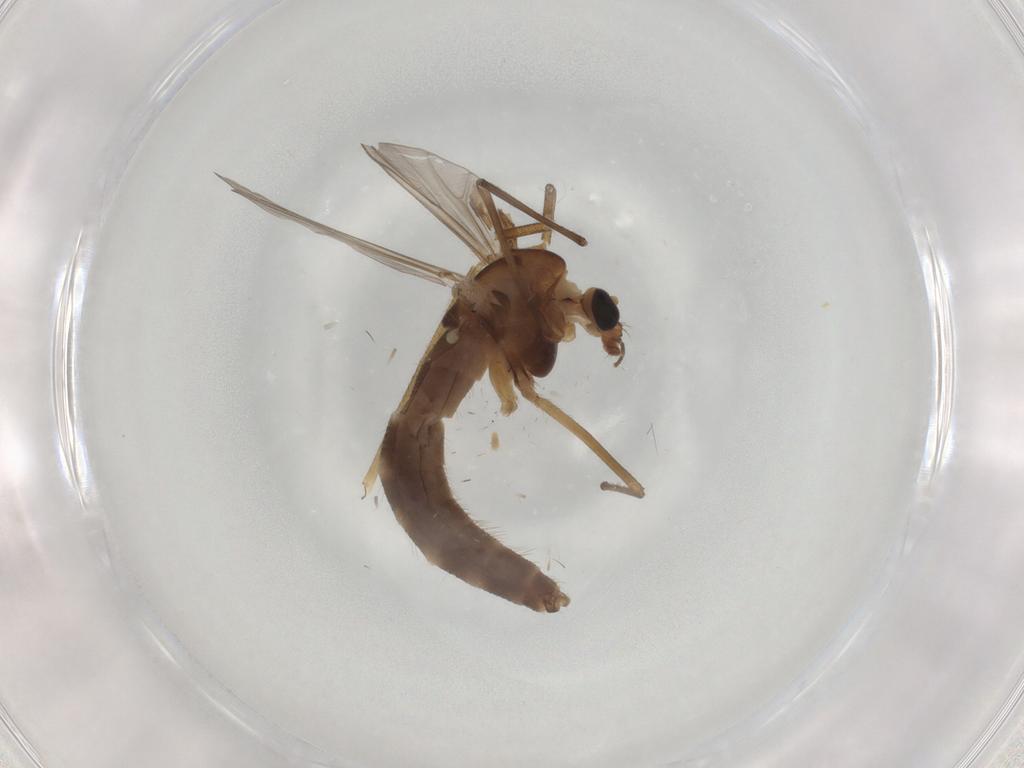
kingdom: Animalia
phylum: Arthropoda
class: Insecta
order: Diptera
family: Chironomidae
